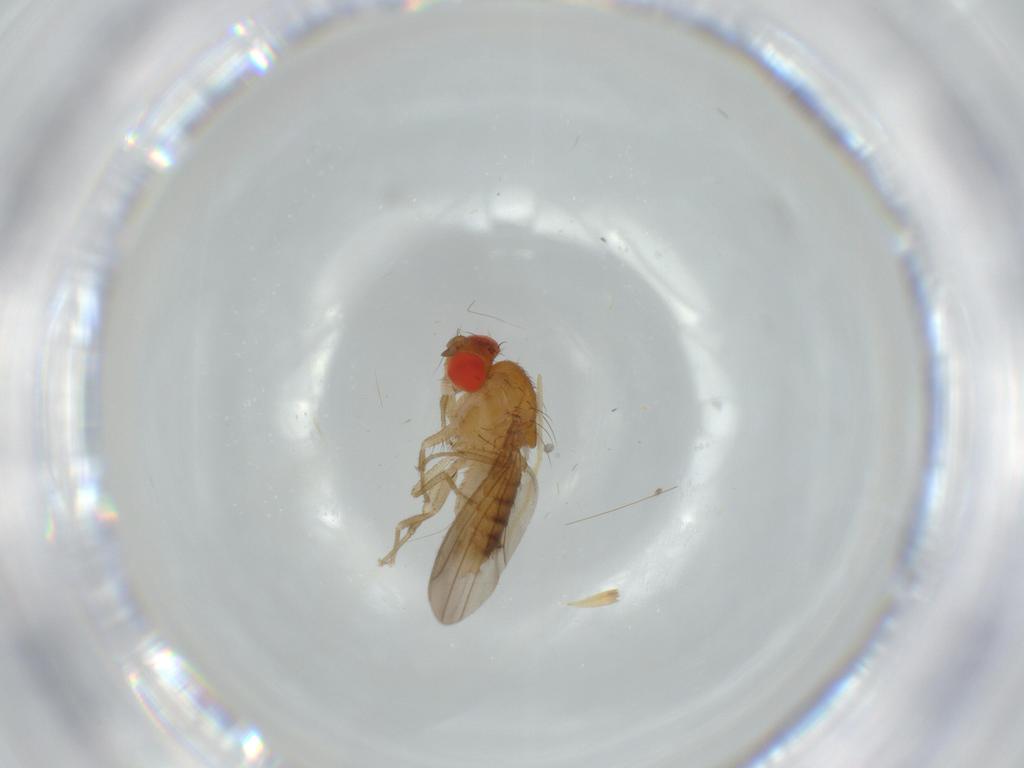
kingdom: Animalia
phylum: Arthropoda
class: Insecta
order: Diptera
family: Drosophilidae
